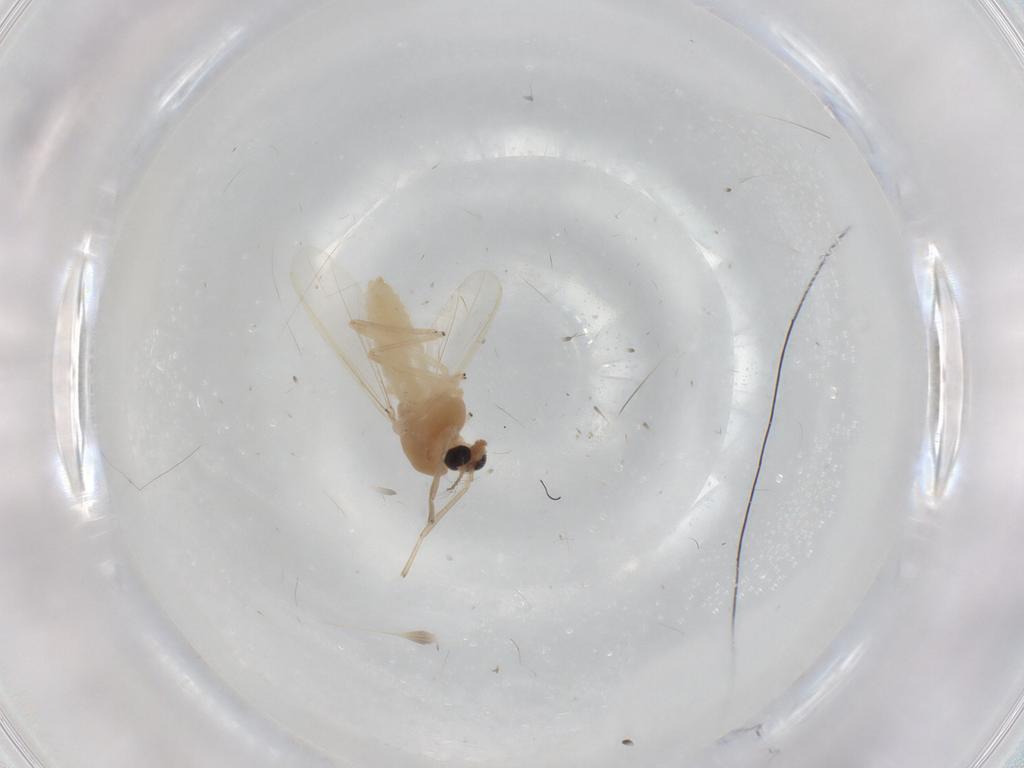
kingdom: Animalia
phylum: Arthropoda
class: Insecta
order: Diptera
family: Bibionidae
